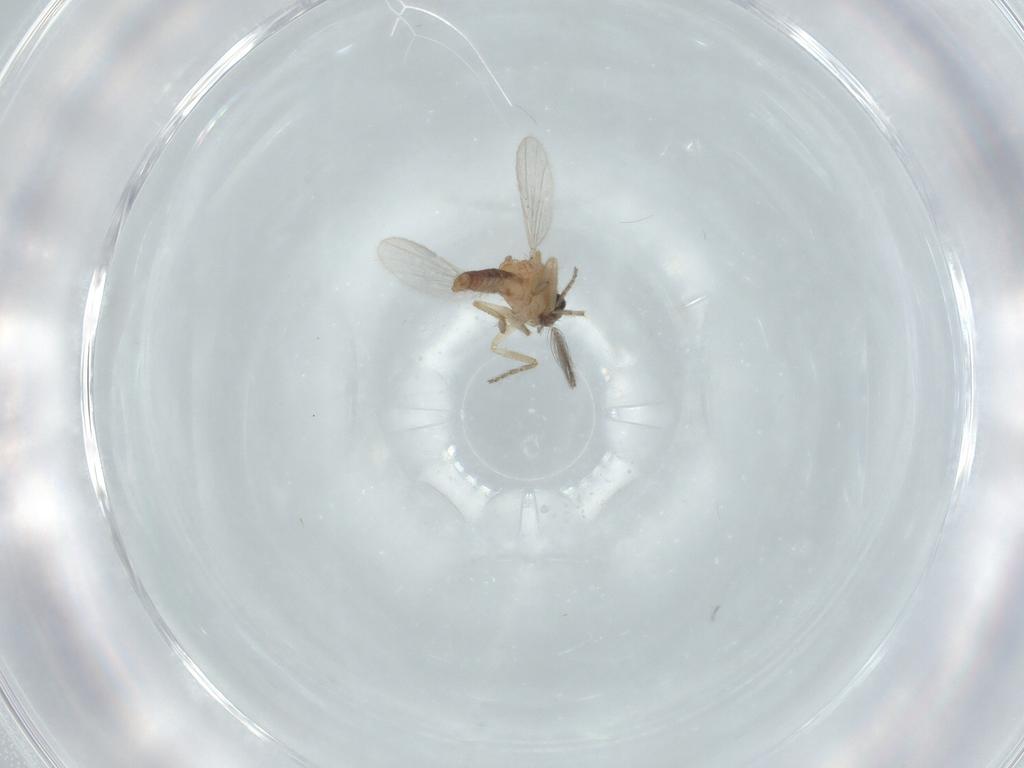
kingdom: Animalia
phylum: Arthropoda
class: Insecta
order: Diptera
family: Ceratopogonidae
